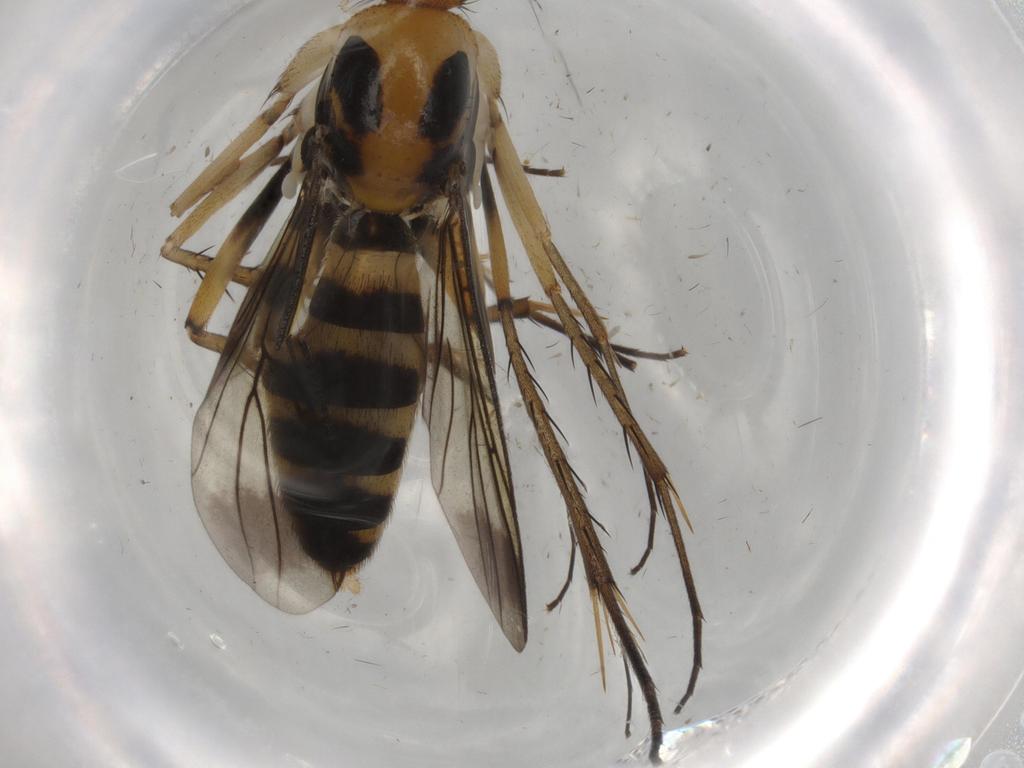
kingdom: Animalia
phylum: Arthropoda
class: Insecta
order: Diptera
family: Mycetophilidae
